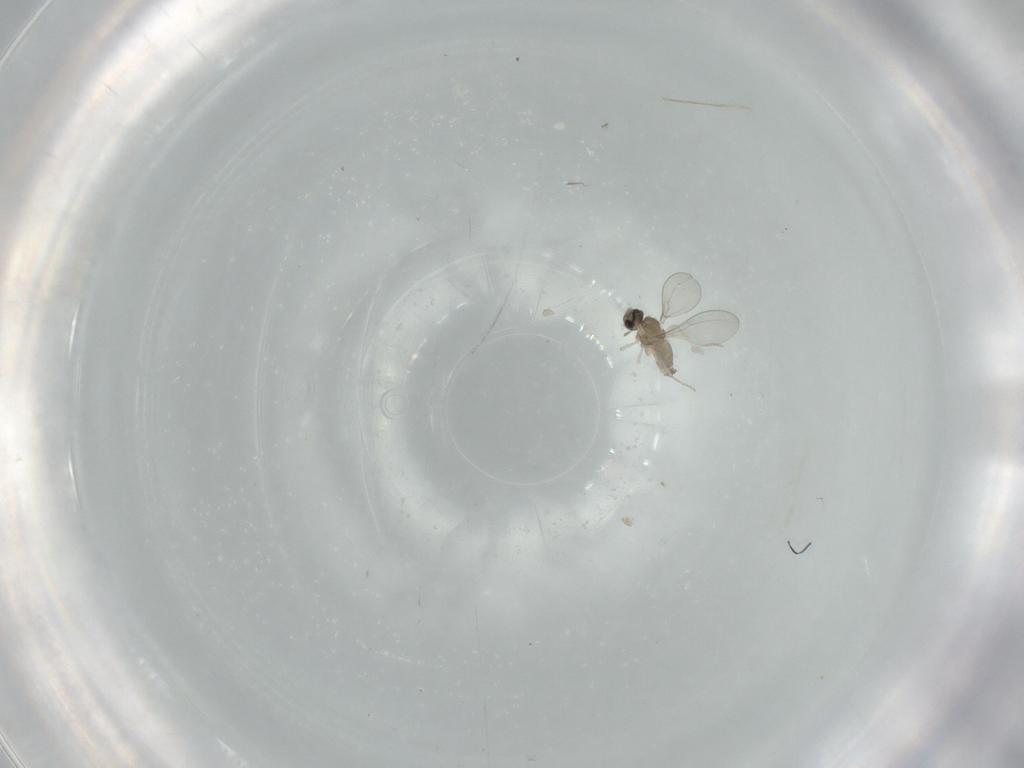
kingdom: Animalia
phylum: Arthropoda
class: Insecta
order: Diptera
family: Cecidomyiidae
